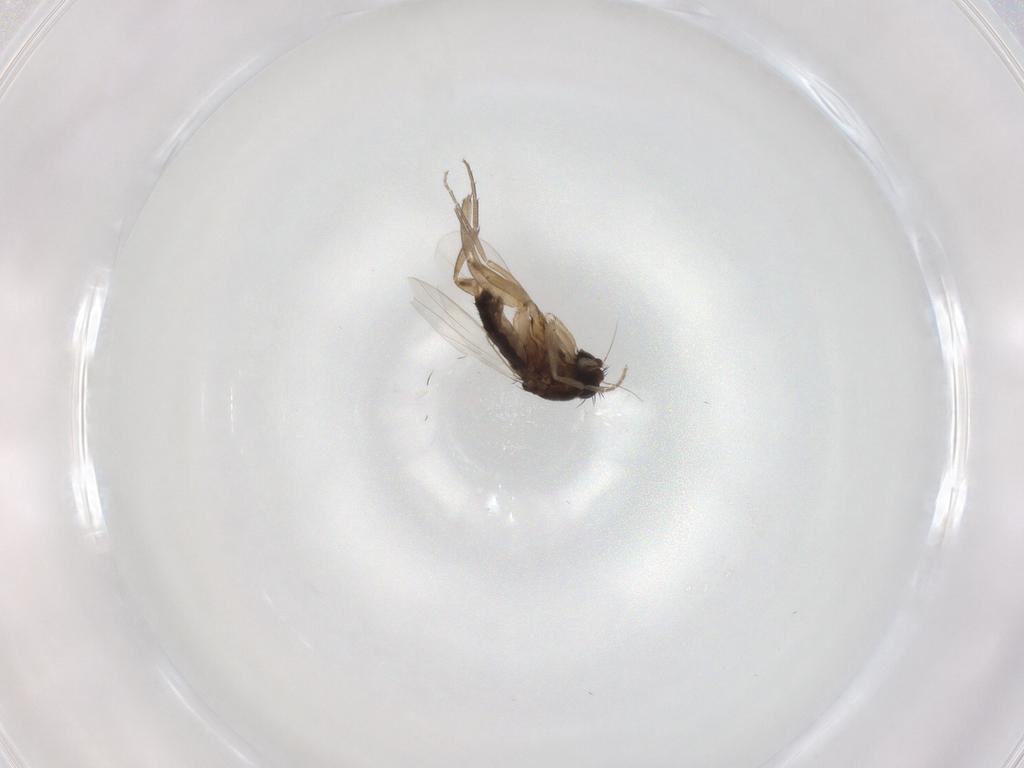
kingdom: Animalia
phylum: Arthropoda
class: Insecta
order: Diptera
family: Phoridae
